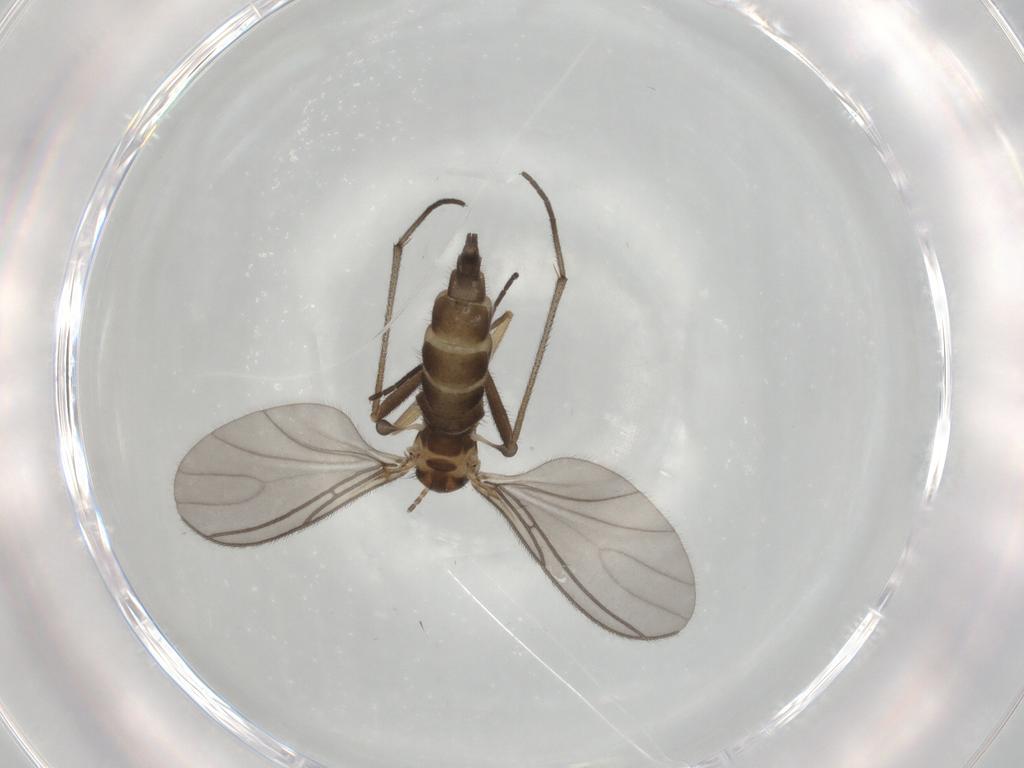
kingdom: Animalia
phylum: Arthropoda
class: Insecta
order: Diptera
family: Sciaridae
